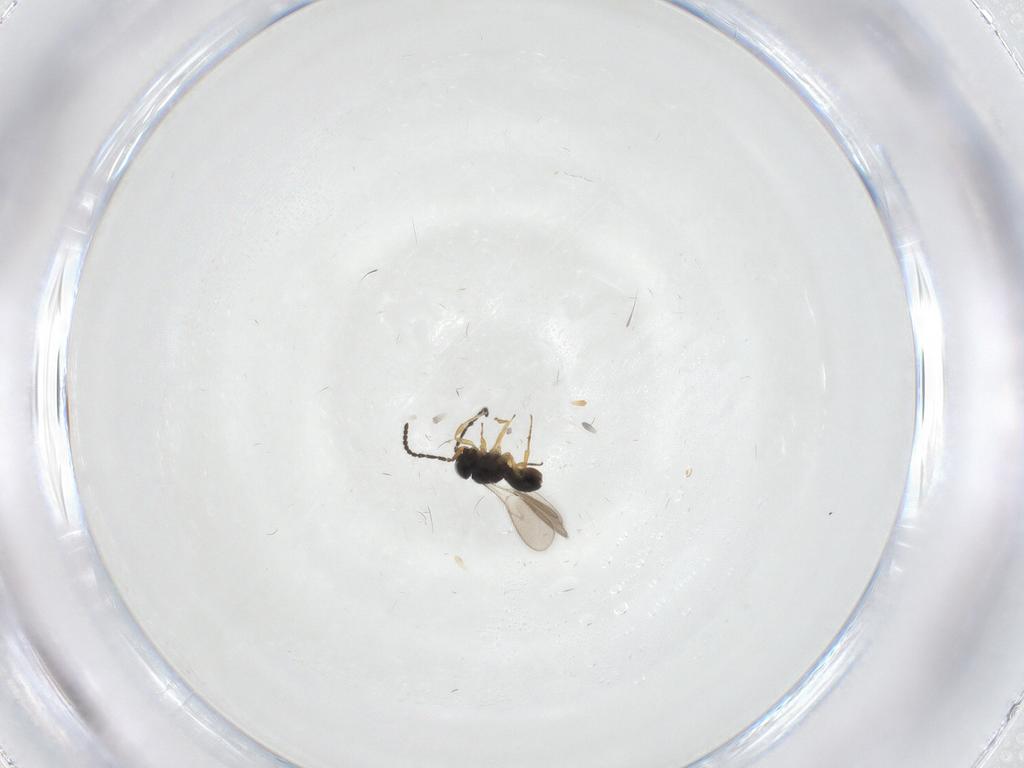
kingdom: Animalia
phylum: Arthropoda
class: Insecta
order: Hymenoptera
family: Scelionidae
